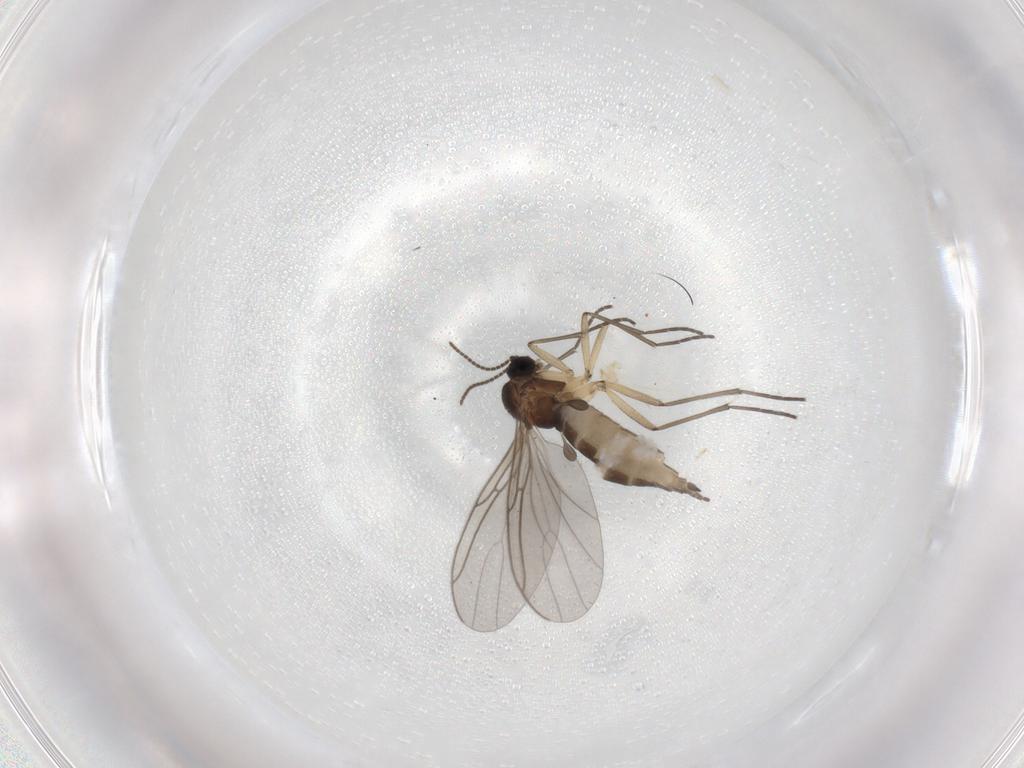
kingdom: Animalia
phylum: Arthropoda
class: Insecta
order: Diptera
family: Sciaridae
